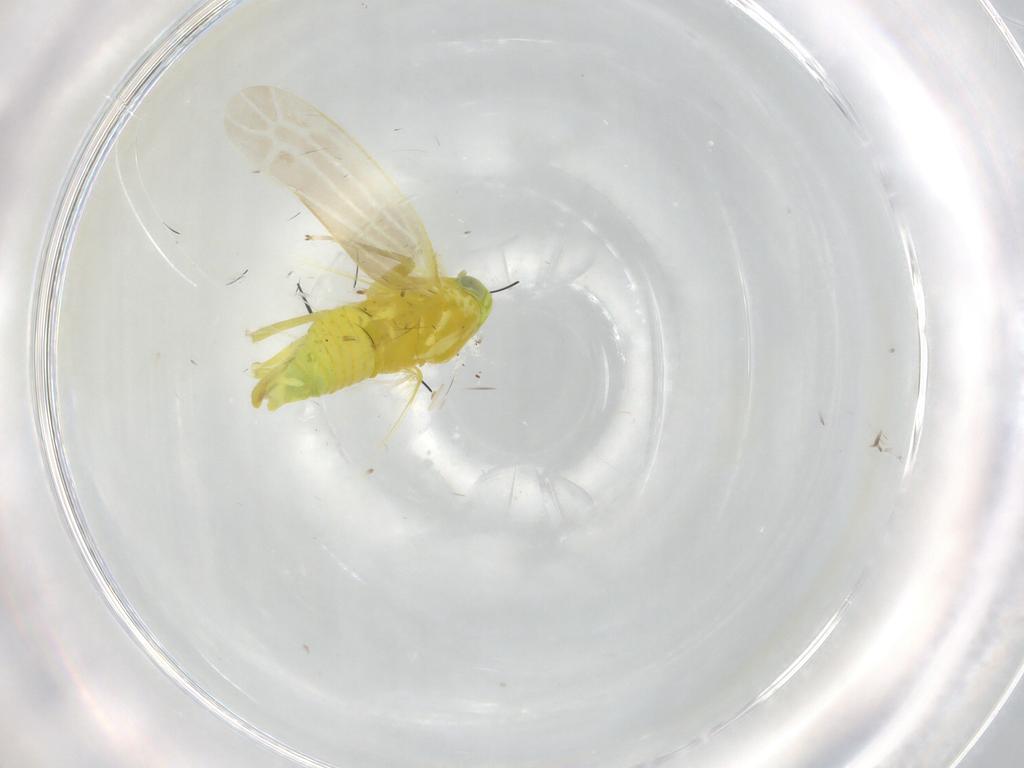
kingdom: Animalia
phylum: Arthropoda
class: Insecta
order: Hemiptera
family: Cicadellidae
